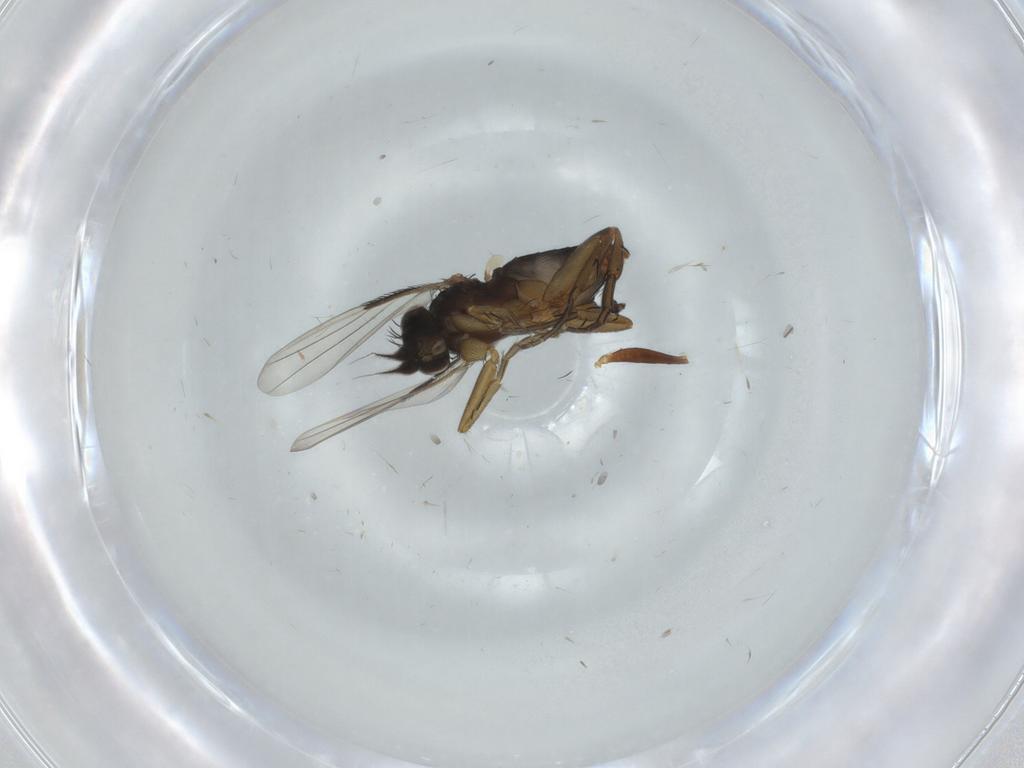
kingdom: Animalia
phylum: Arthropoda
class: Insecta
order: Diptera
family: Phoridae
